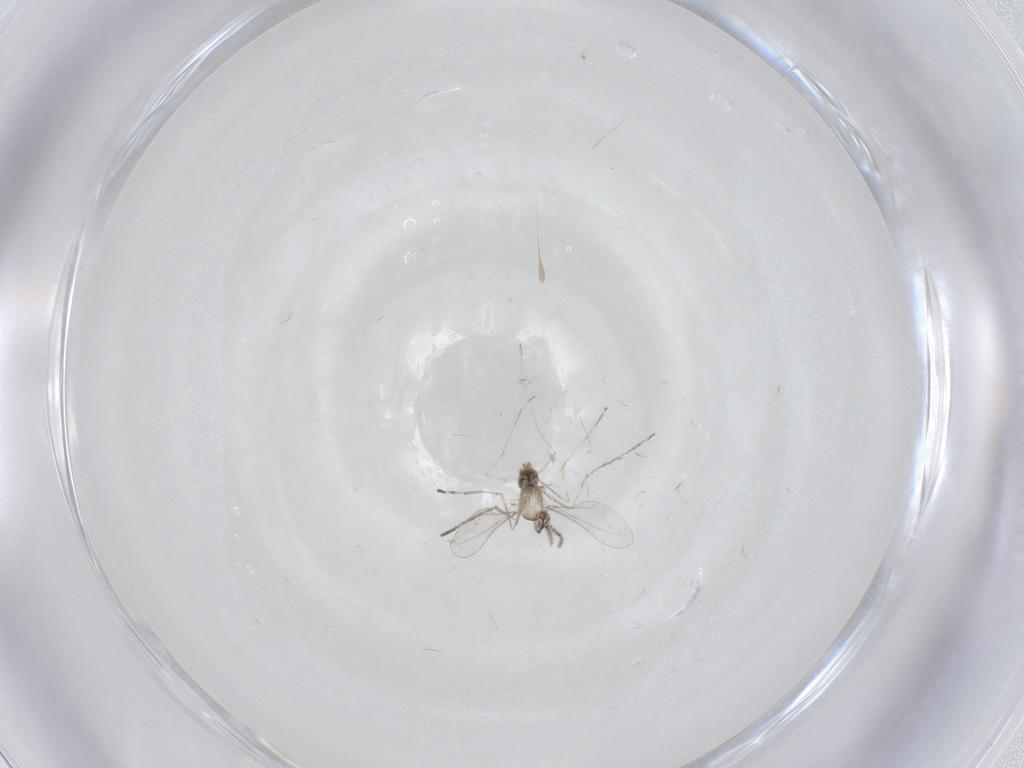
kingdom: Animalia
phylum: Arthropoda
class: Insecta
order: Diptera
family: Cecidomyiidae
